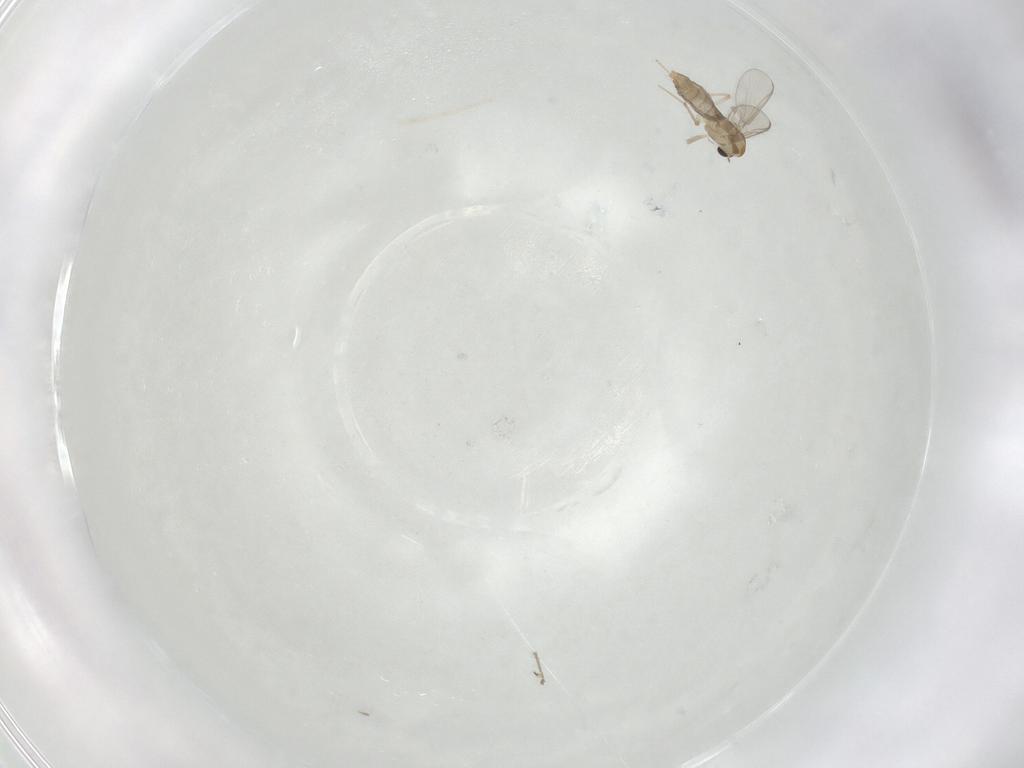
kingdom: Animalia
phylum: Arthropoda
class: Insecta
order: Diptera
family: Chironomidae
